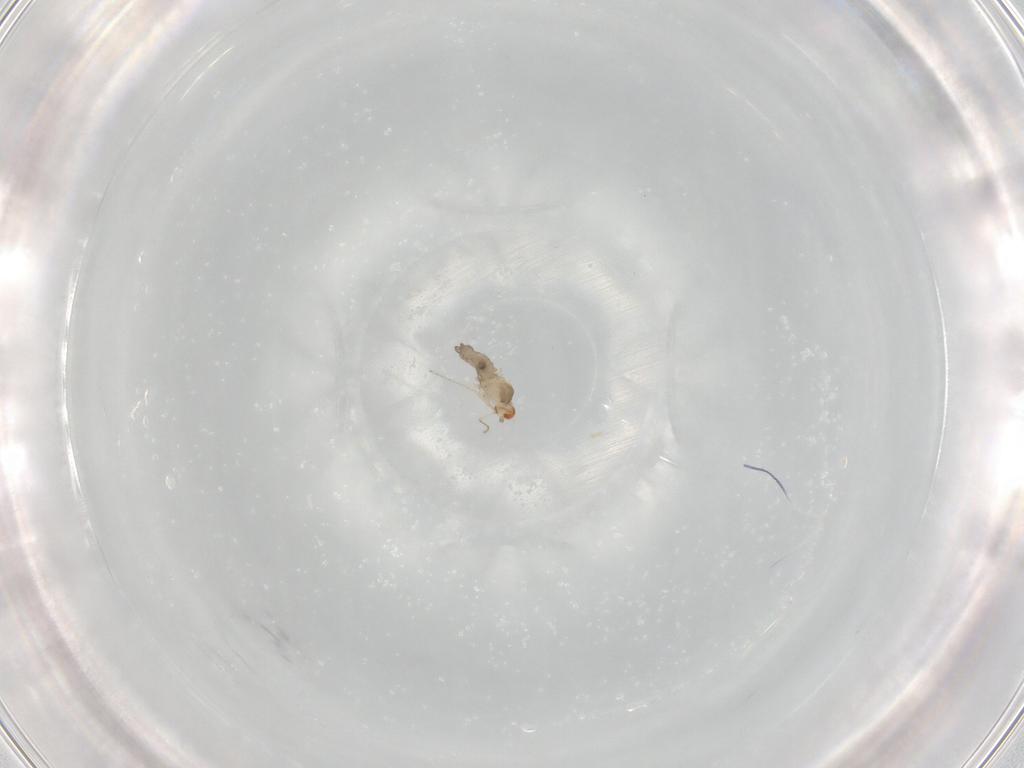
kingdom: Animalia
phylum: Arthropoda
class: Insecta
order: Diptera
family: Cecidomyiidae
